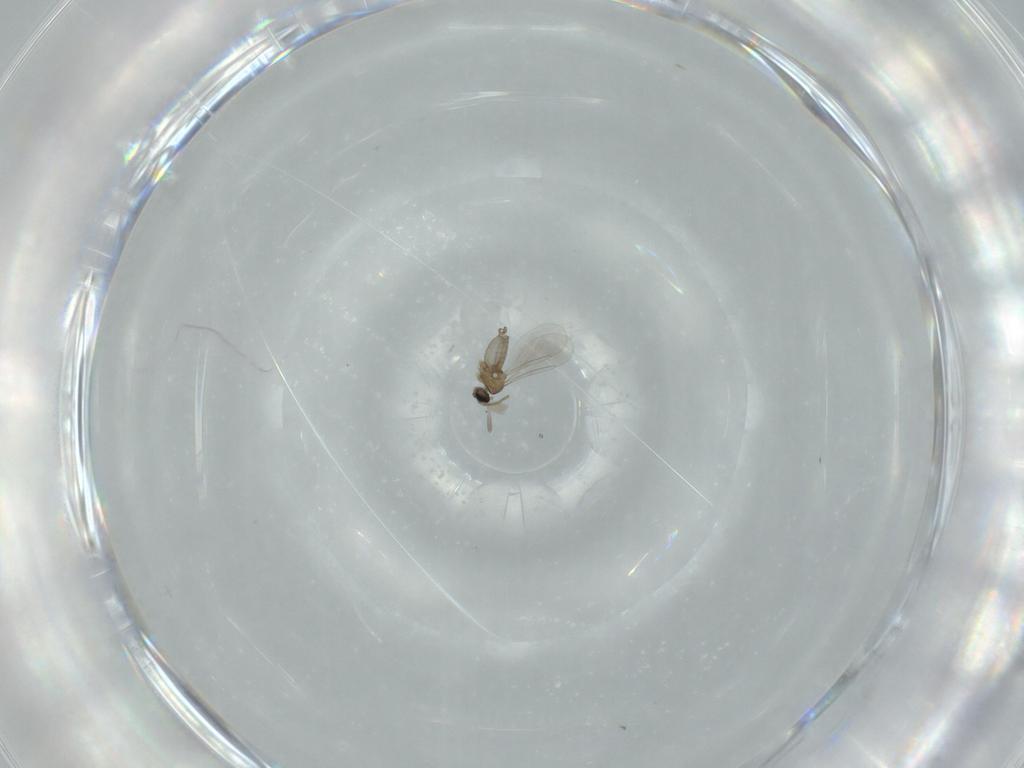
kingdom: Animalia
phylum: Arthropoda
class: Insecta
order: Diptera
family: Cecidomyiidae
